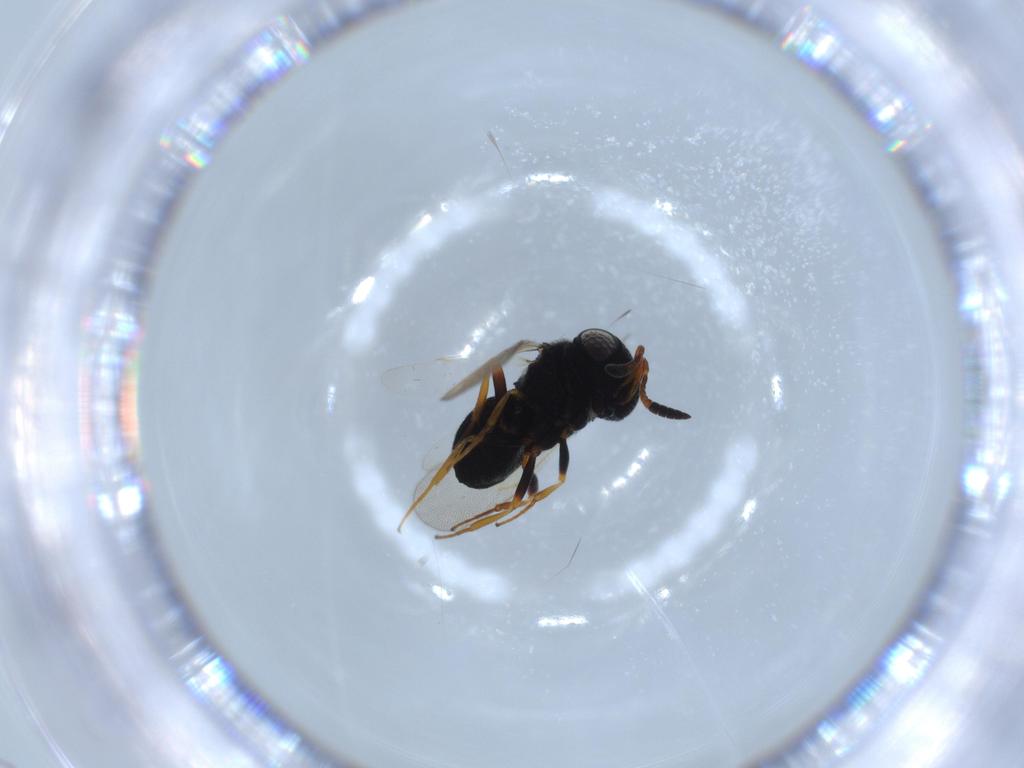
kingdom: Animalia
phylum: Arthropoda
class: Insecta
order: Hymenoptera
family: Scelionidae
